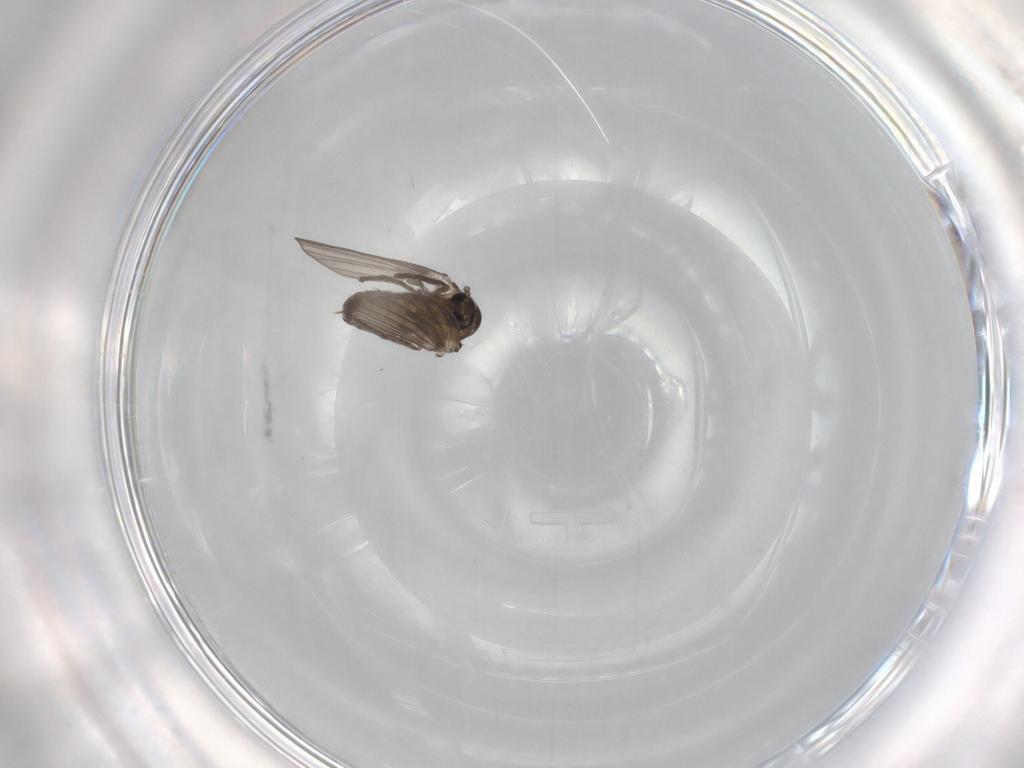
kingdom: Animalia
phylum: Arthropoda
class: Insecta
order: Diptera
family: Psychodidae
